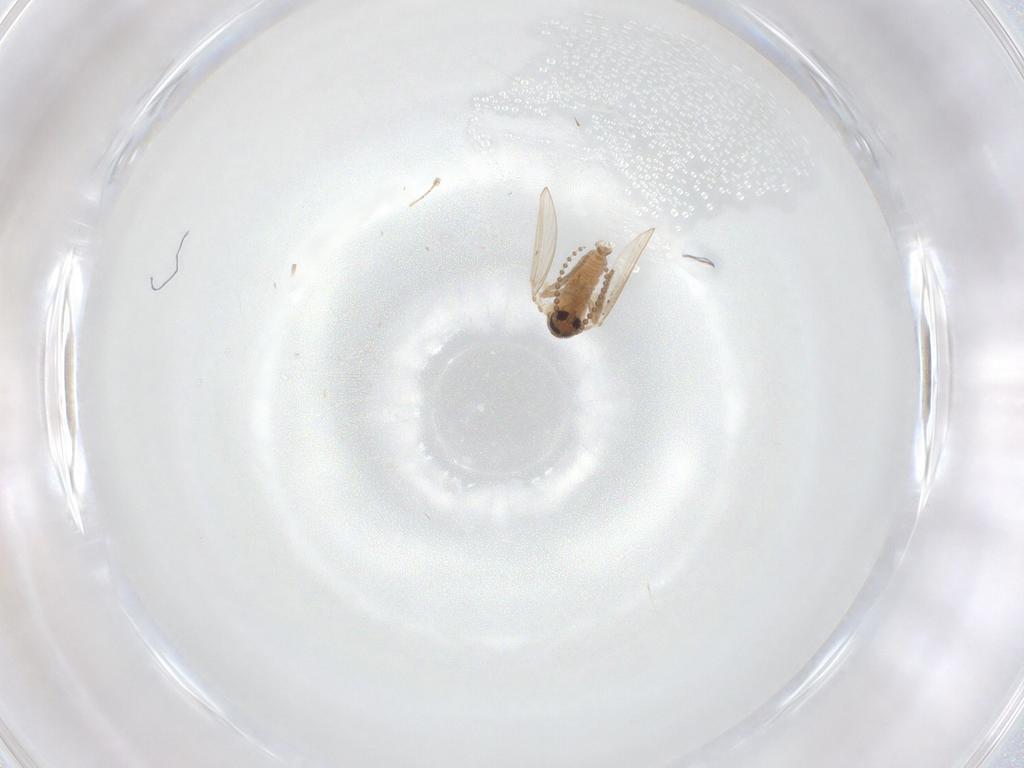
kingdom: Animalia
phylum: Arthropoda
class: Insecta
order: Diptera
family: Psychodidae
